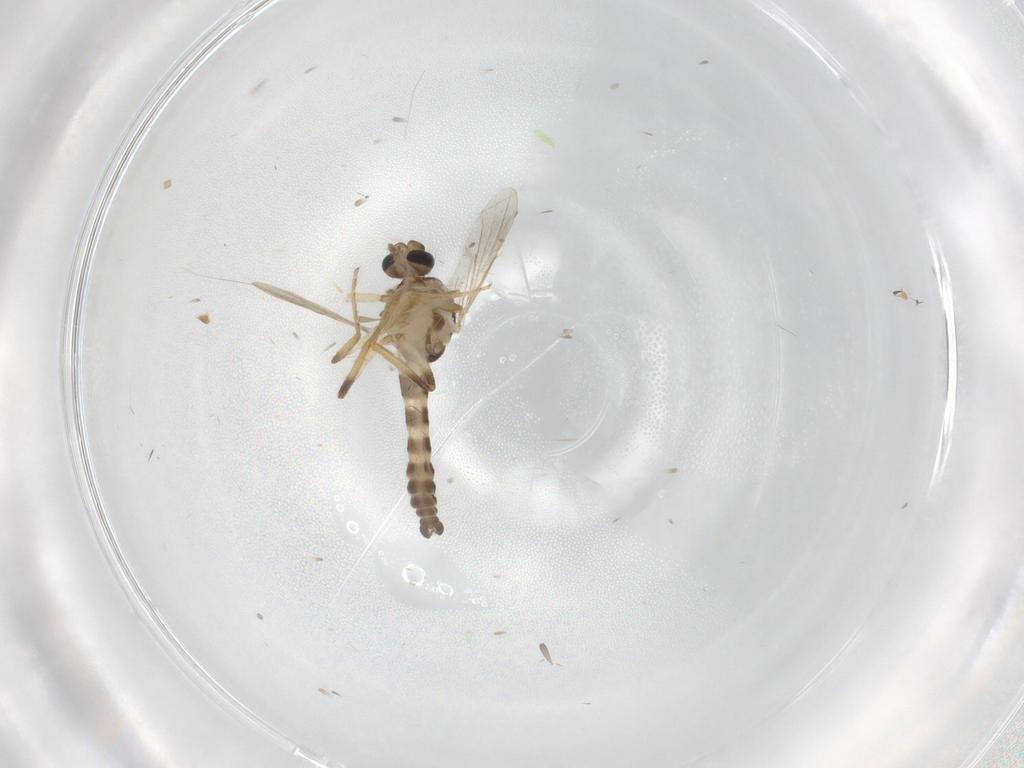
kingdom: Animalia
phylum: Arthropoda
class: Insecta
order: Diptera
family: Ceratopogonidae
